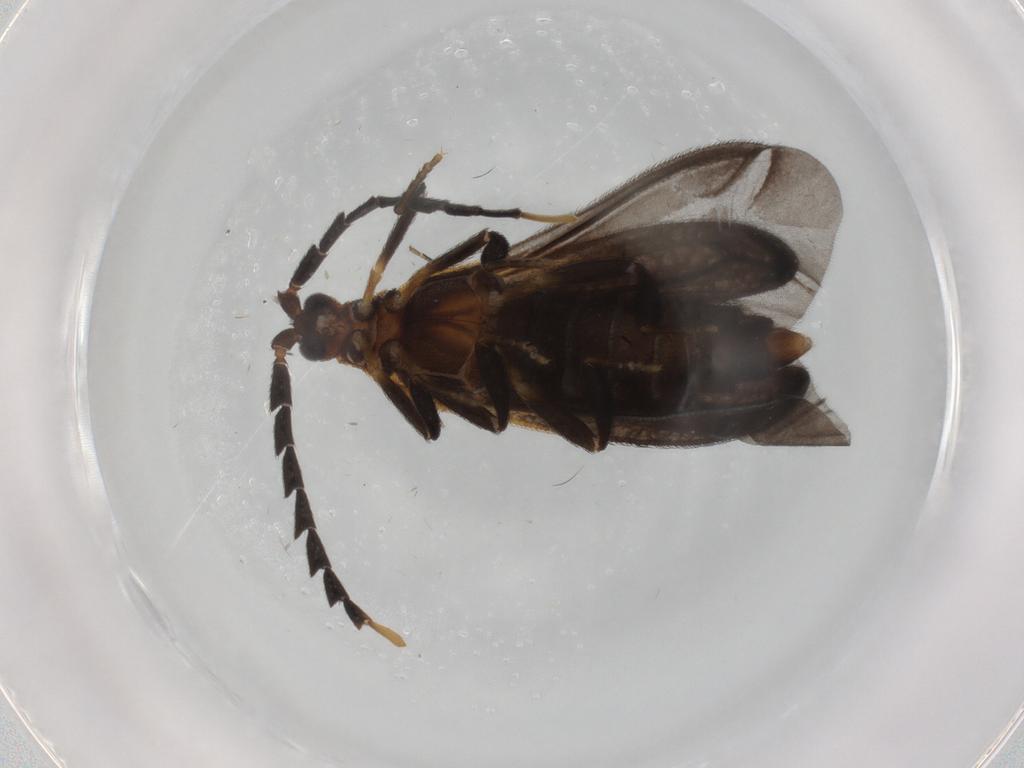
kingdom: Animalia
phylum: Arthropoda
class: Insecta
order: Coleoptera
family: Lycidae
